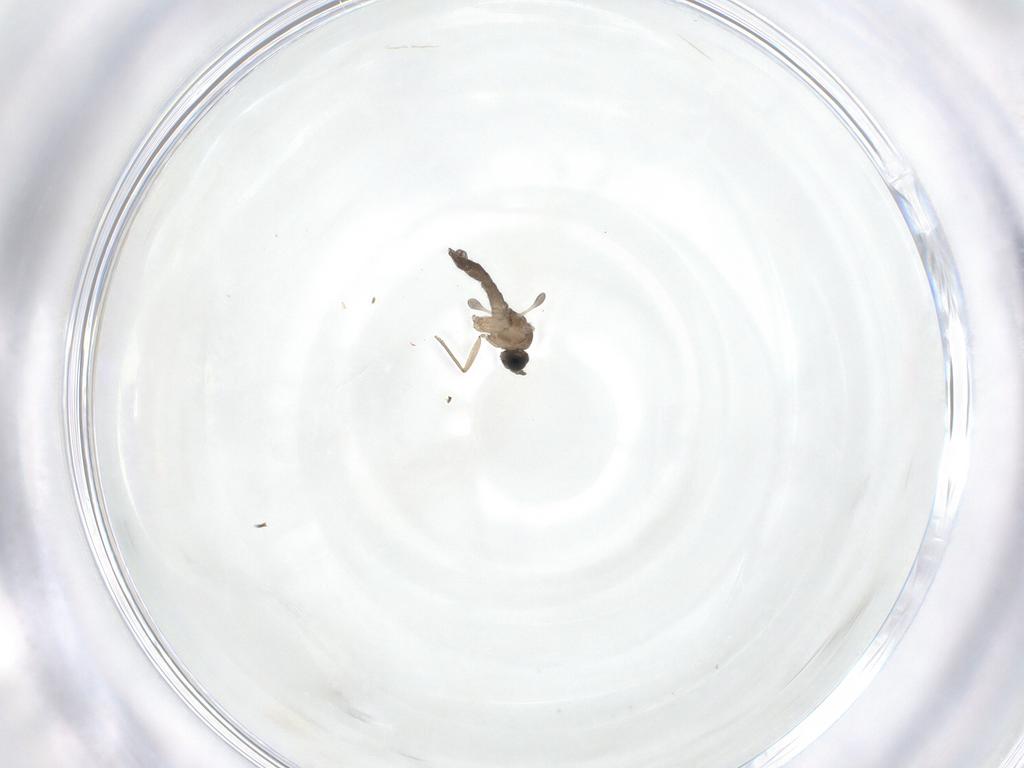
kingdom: Animalia
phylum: Arthropoda
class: Insecta
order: Diptera
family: Sciaridae
